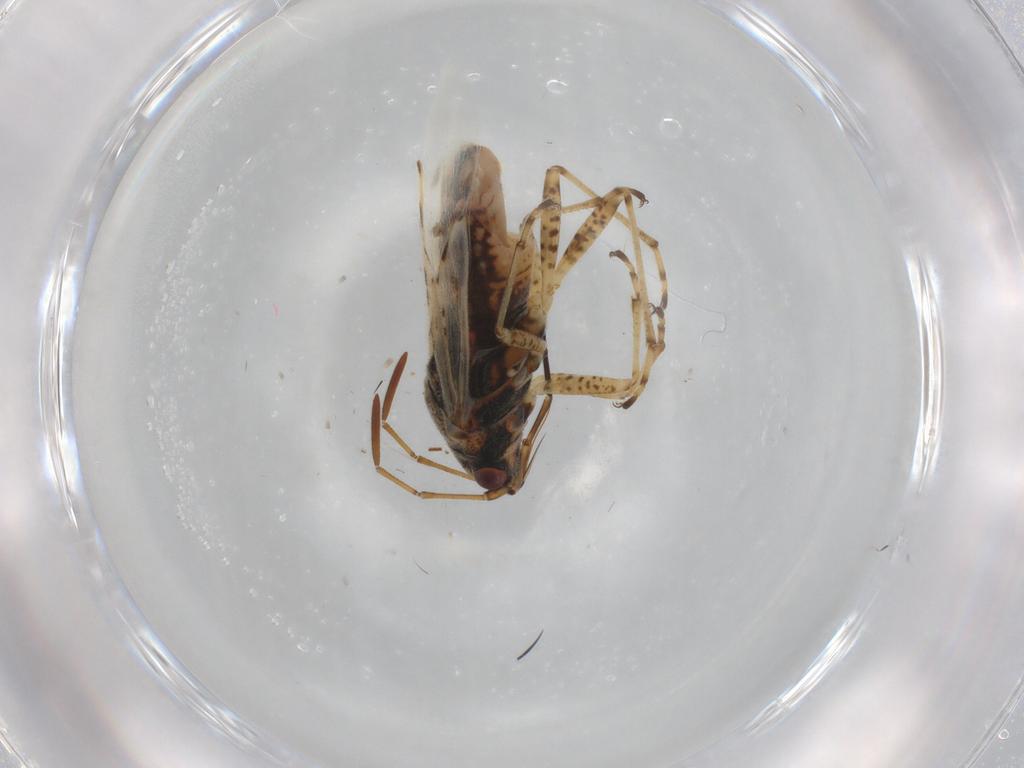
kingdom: Animalia
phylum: Arthropoda
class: Insecta
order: Hemiptera
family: Lygaeidae
